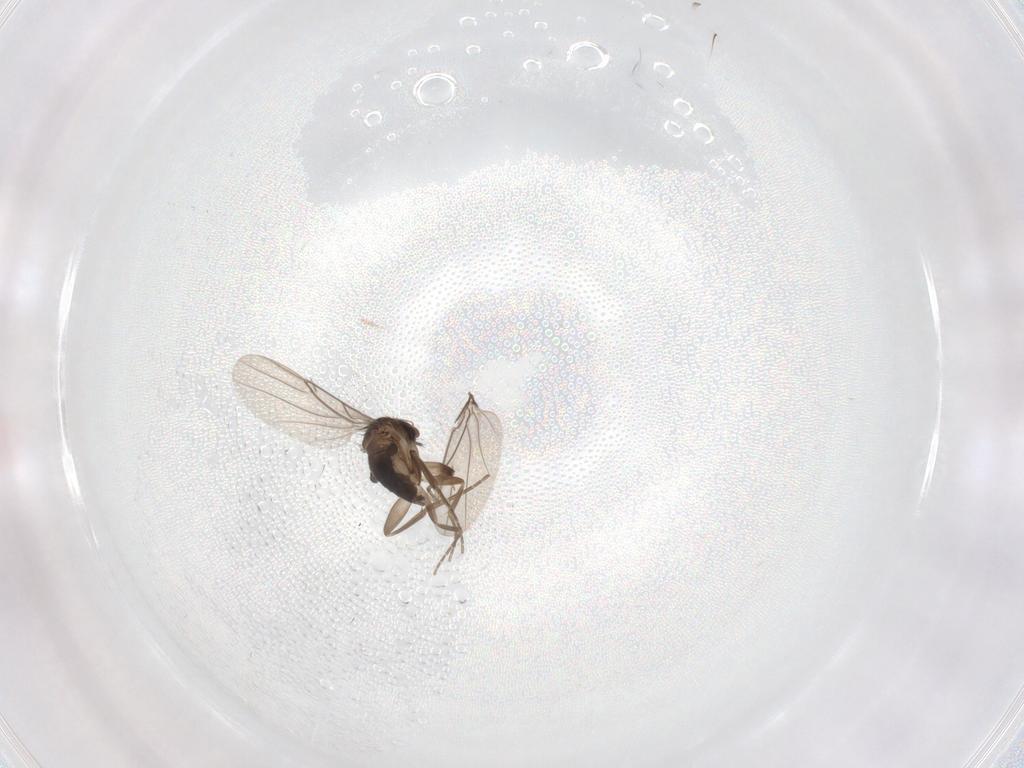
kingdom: Animalia
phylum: Arthropoda
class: Insecta
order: Diptera
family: Phoridae
